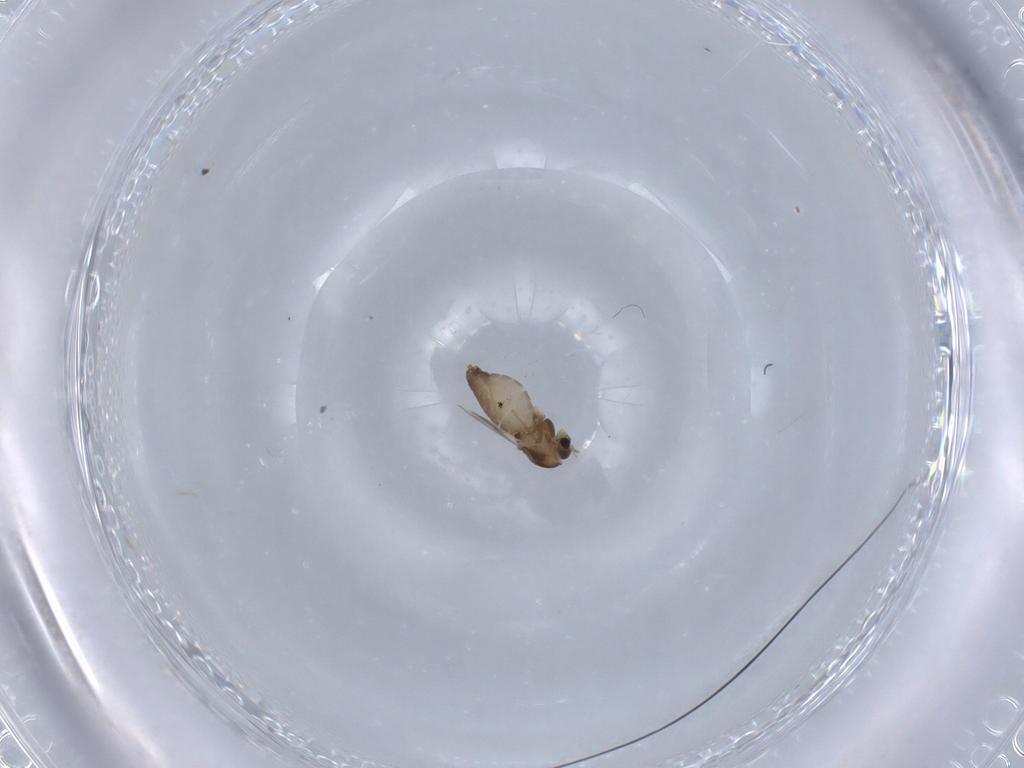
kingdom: Animalia
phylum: Arthropoda
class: Insecta
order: Diptera
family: Chironomidae
